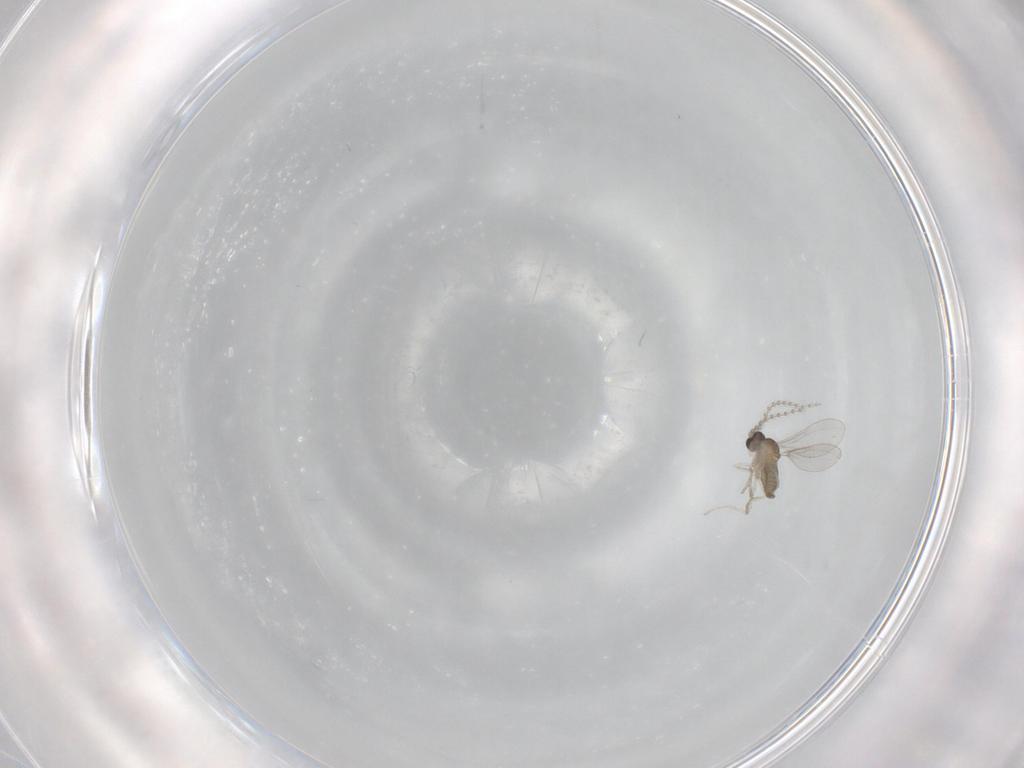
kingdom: Animalia
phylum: Arthropoda
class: Insecta
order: Diptera
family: Cecidomyiidae
